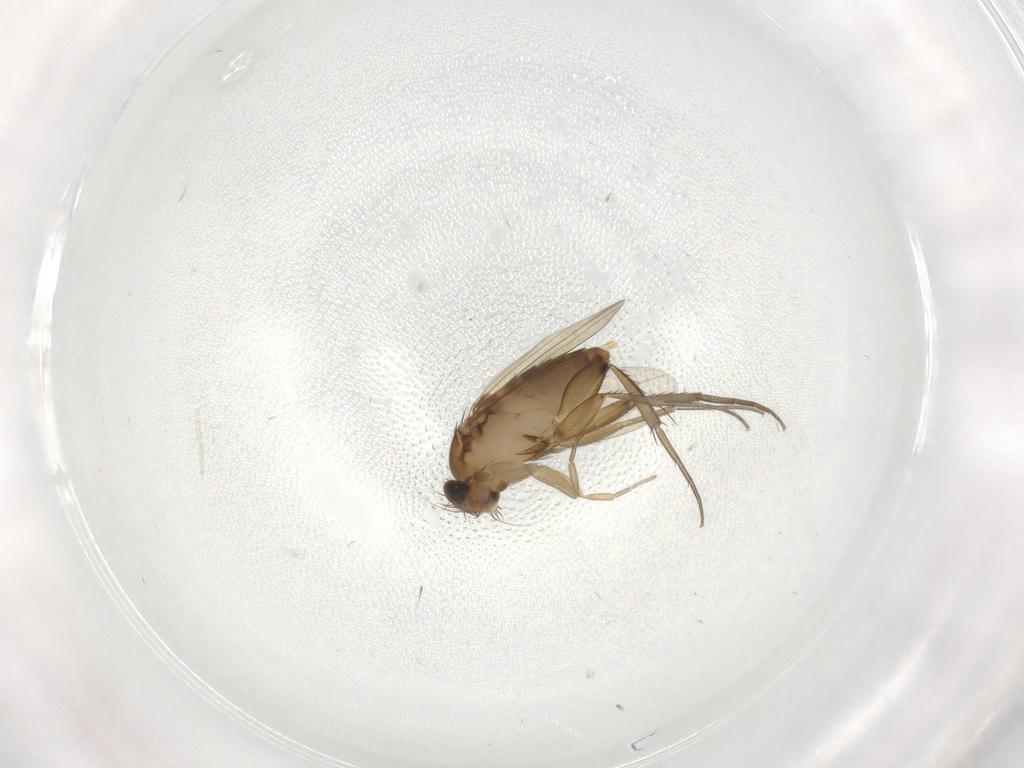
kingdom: Animalia
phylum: Arthropoda
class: Insecta
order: Diptera
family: Phoridae
